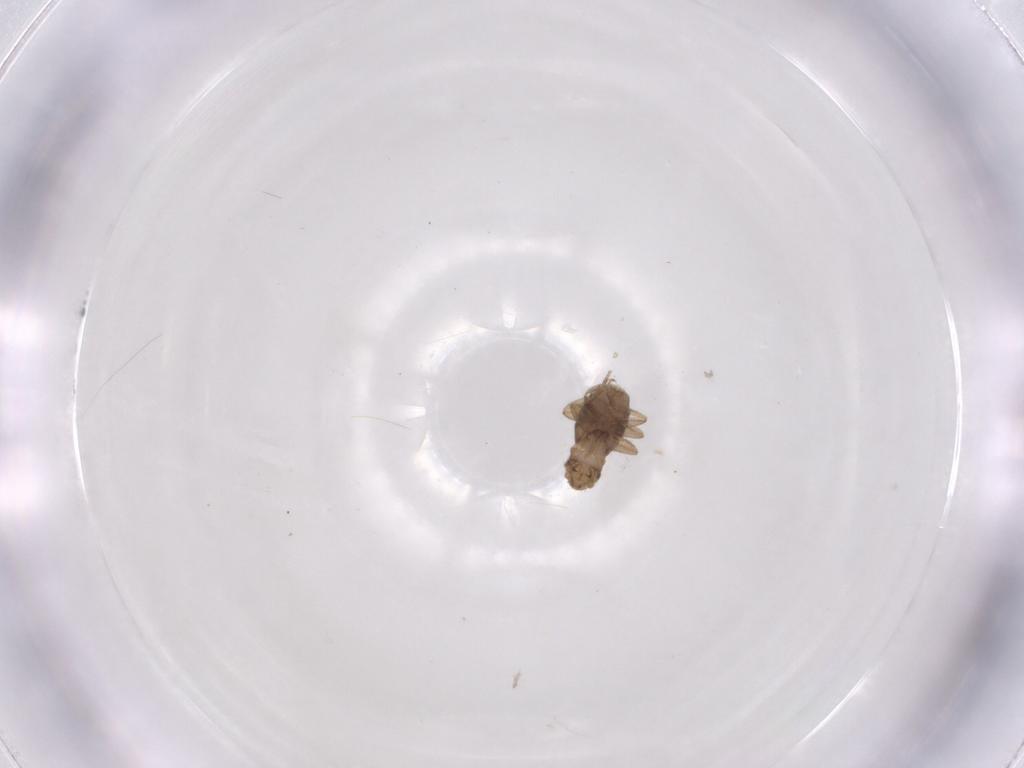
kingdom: Animalia
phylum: Arthropoda
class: Insecta
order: Diptera
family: Phoridae
